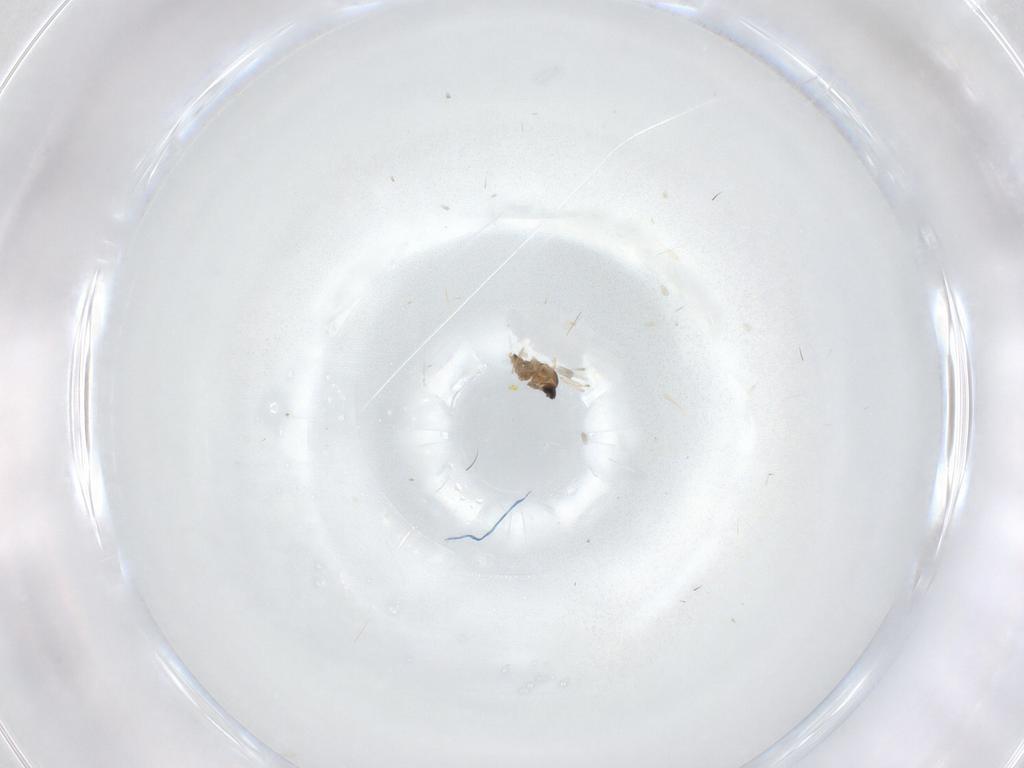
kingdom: Animalia
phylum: Arthropoda
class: Insecta
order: Diptera
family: Cecidomyiidae
